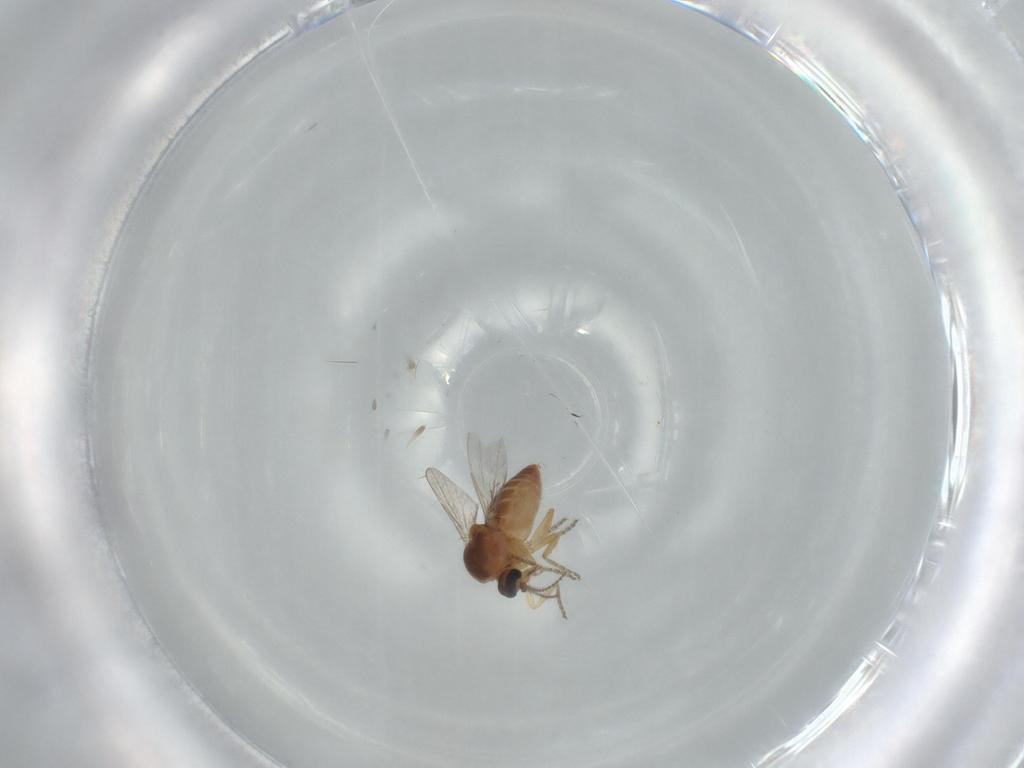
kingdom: Animalia
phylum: Arthropoda
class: Insecta
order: Diptera
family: Ceratopogonidae
